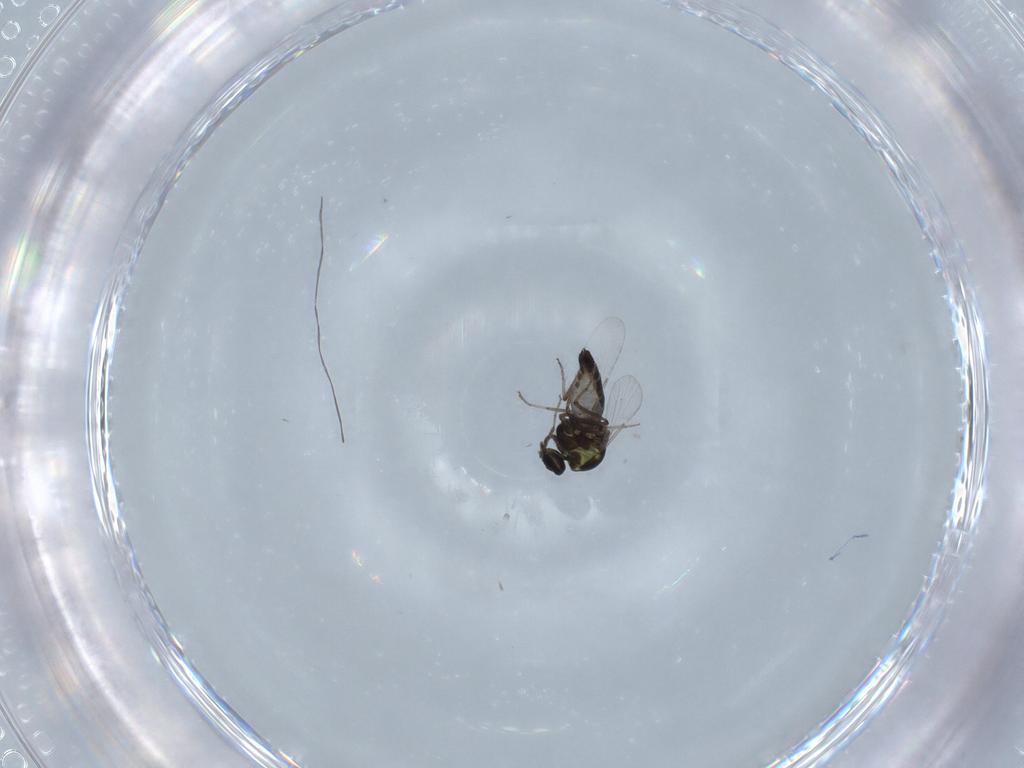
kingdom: Animalia
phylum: Arthropoda
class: Insecta
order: Diptera
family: Ceratopogonidae
